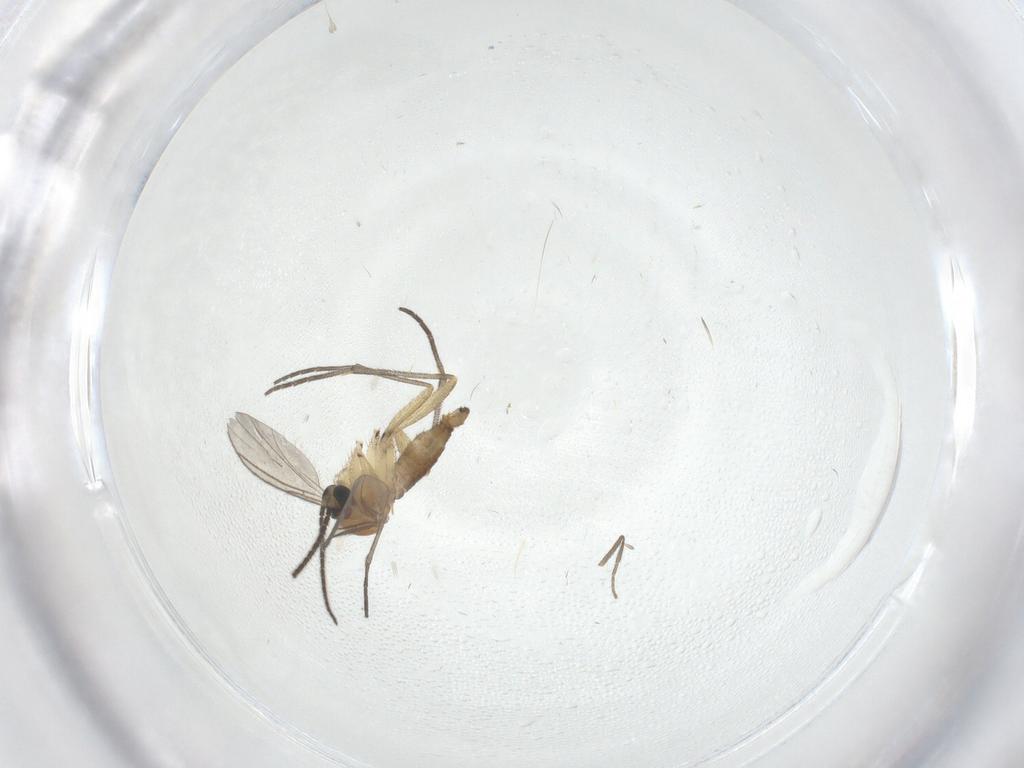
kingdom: Animalia
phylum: Arthropoda
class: Insecta
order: Diptera
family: Sciaridae
